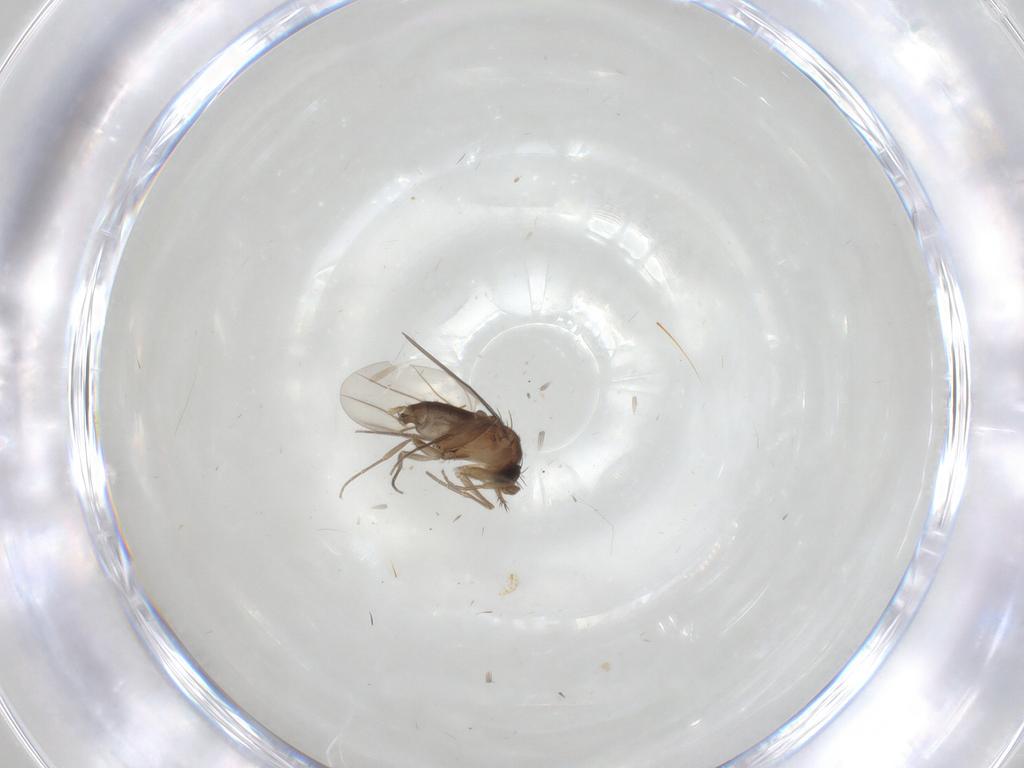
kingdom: Animalia
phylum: Arthropoda
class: Insecta
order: Diptera
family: Psychodidae
